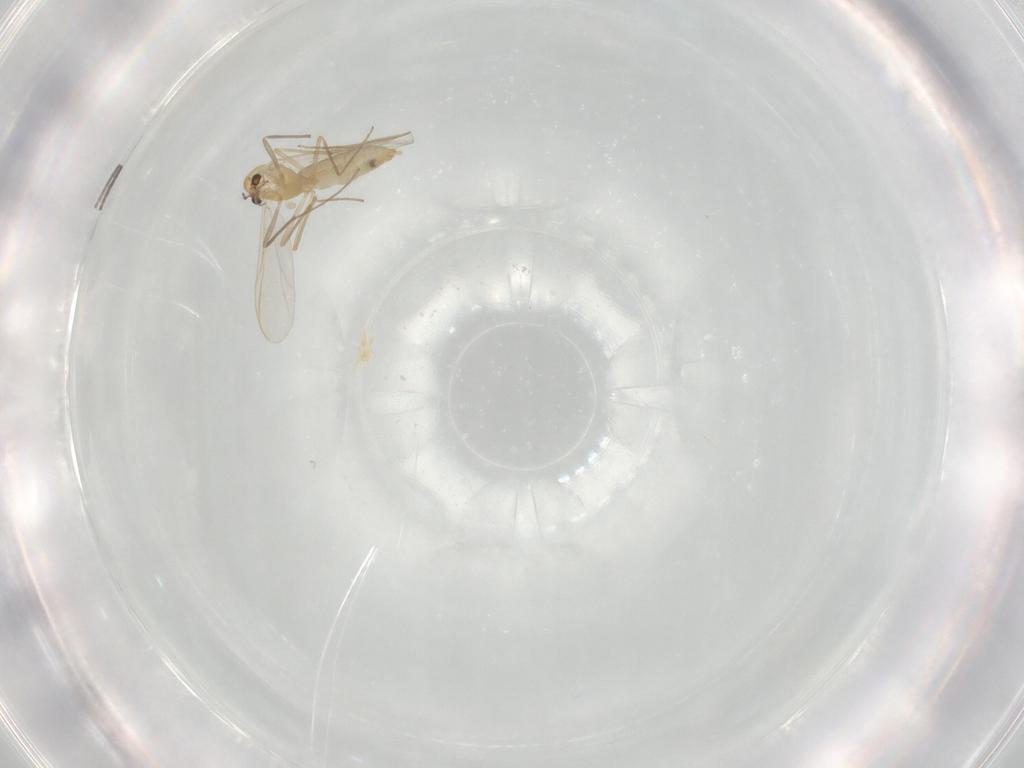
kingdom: Animalia
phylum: Arthropoda
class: Insecta
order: Diptera
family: Chironomidae
